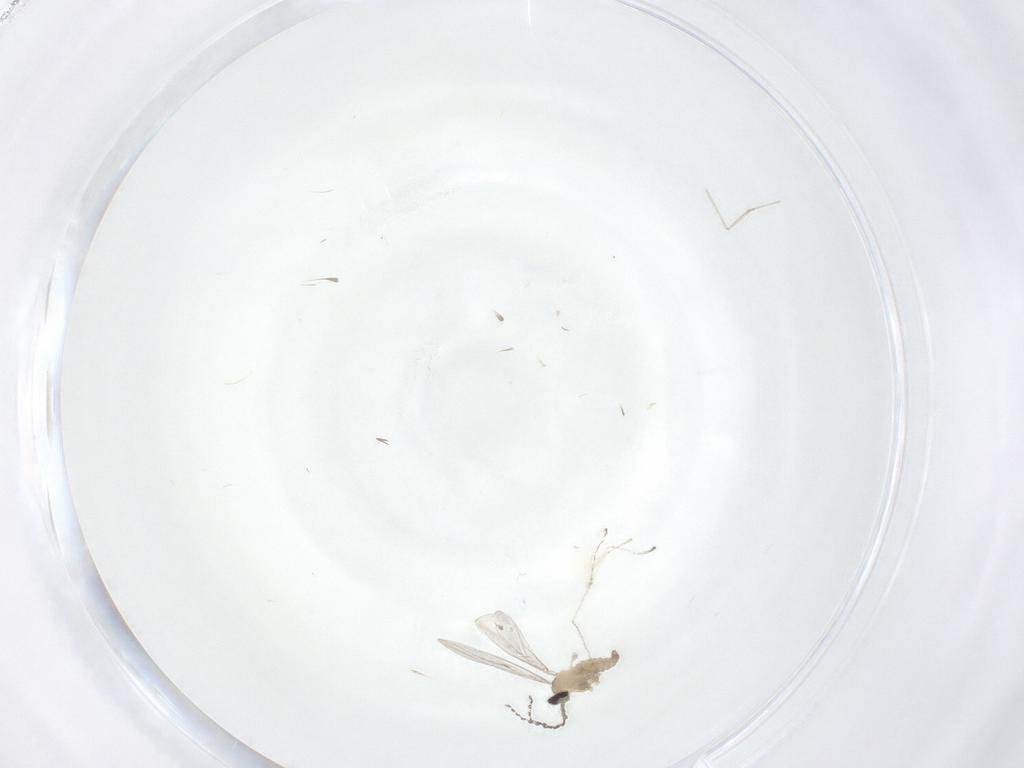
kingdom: Animalia
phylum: Arthropoda
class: Insecta
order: Diptera
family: Cecidomyiidae
